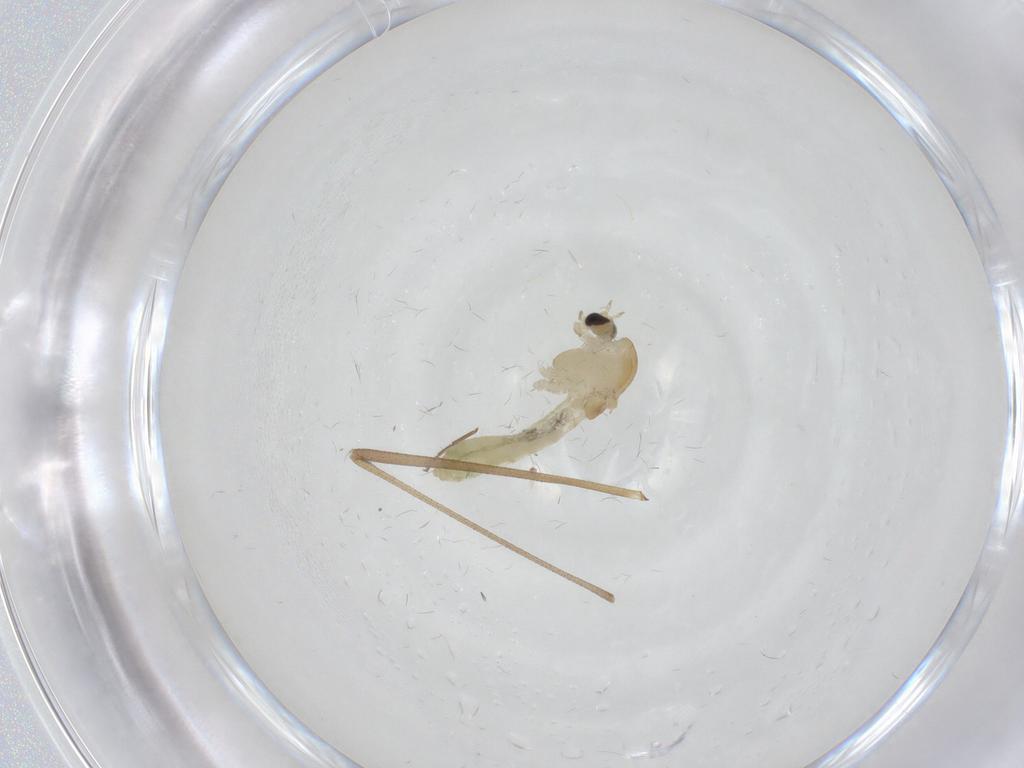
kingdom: Animalia
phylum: Arthropoda
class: Insecta
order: Diptera
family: Chironomidae
